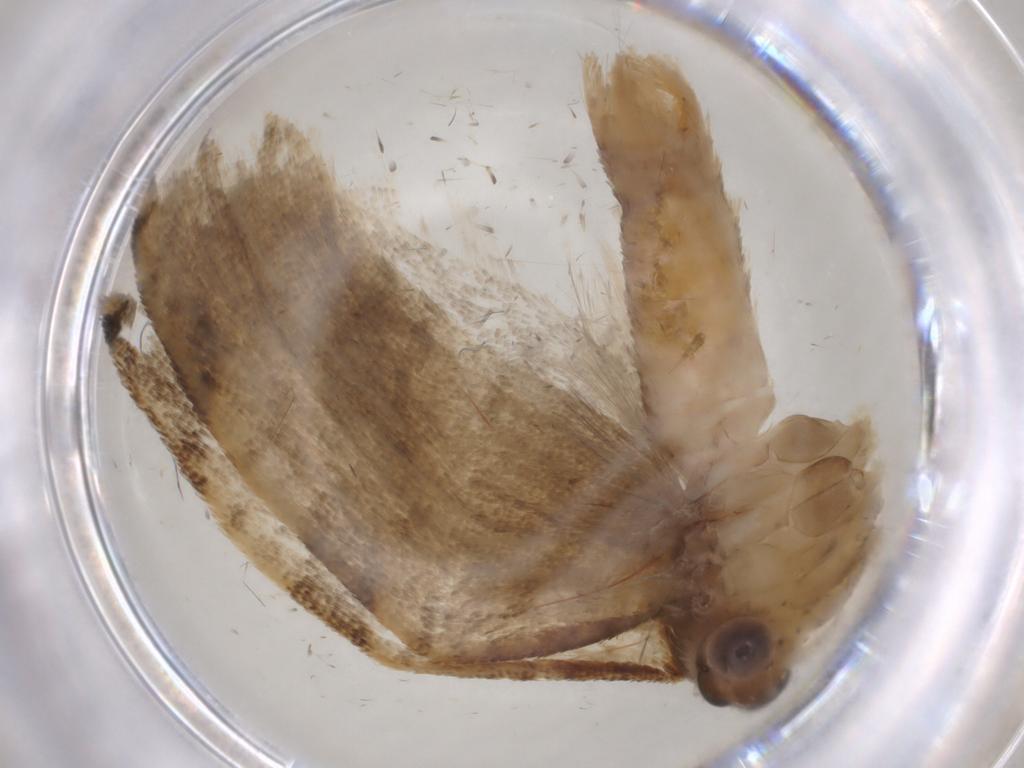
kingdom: Animalia
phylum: Arthropoda
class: Insecta
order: Lepidoptera
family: Tortricidae
